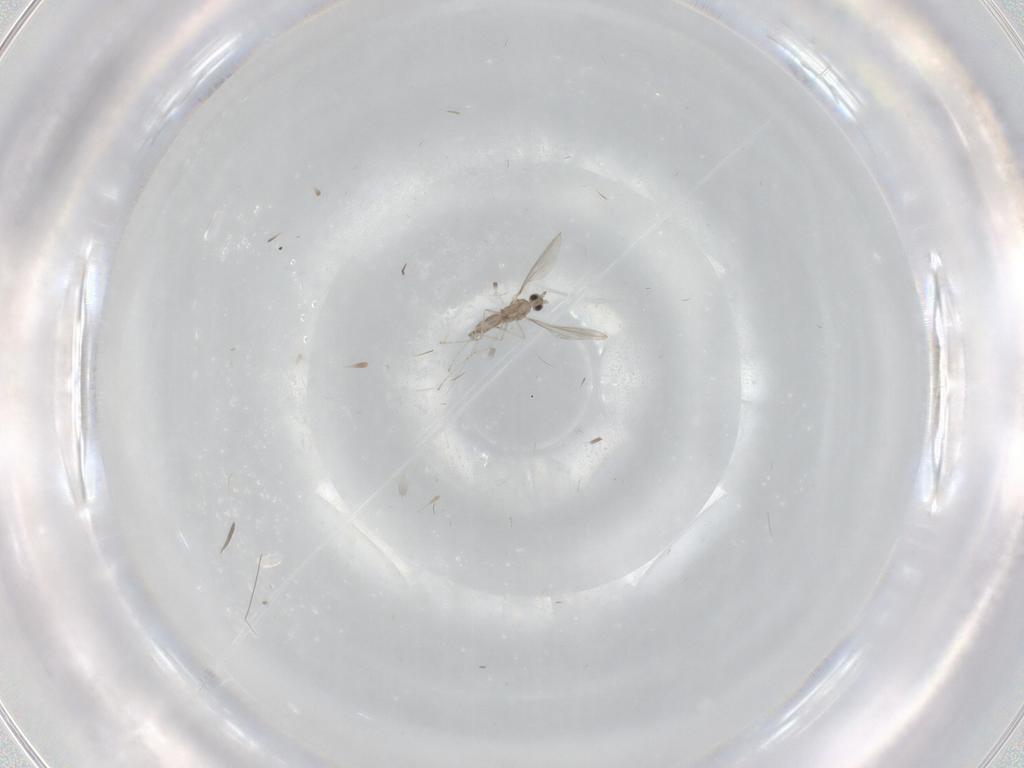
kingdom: Animalia
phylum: Arthropoda
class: Insecta
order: Diptera
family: Cecidomyiidae
